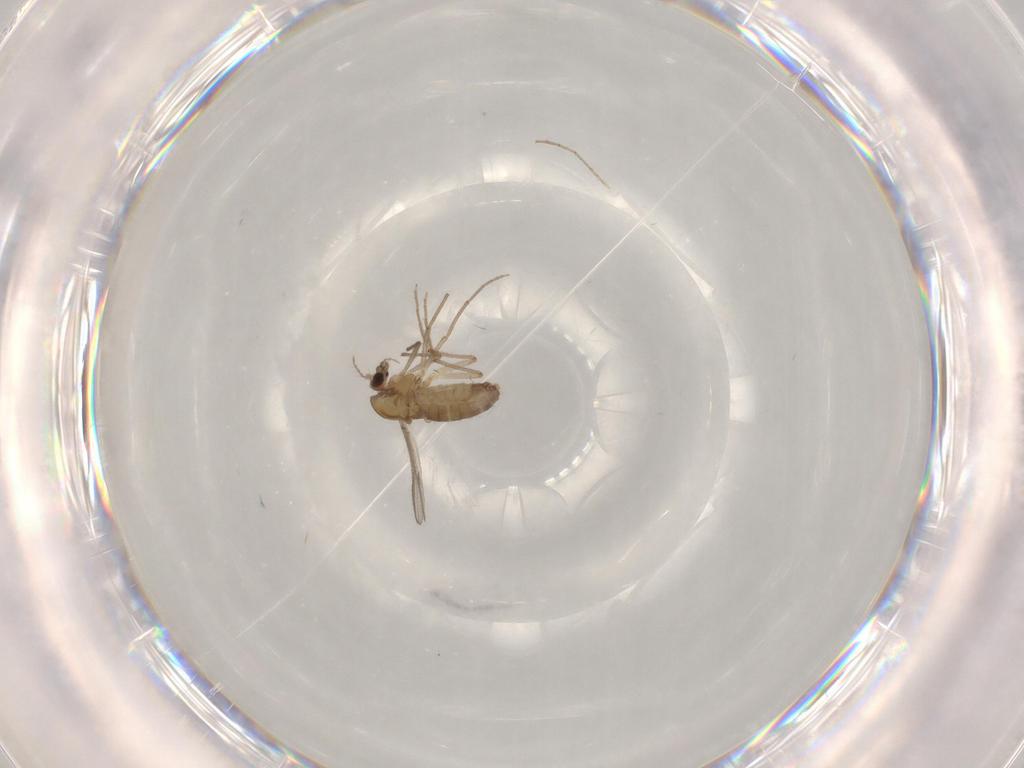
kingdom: Animalia
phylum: Arthropoda
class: Insecta
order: Diptera
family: Chironomidae
